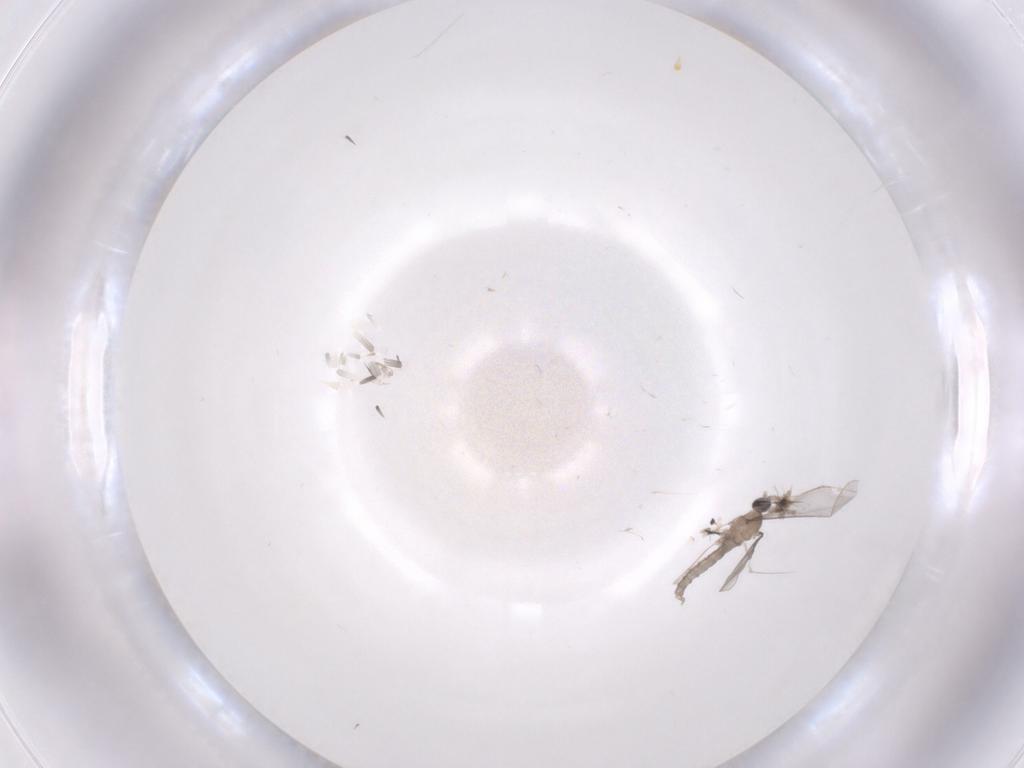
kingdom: Animalia
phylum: Arthropoda
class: Insecta
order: Diptera
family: Cecidomyiidae
